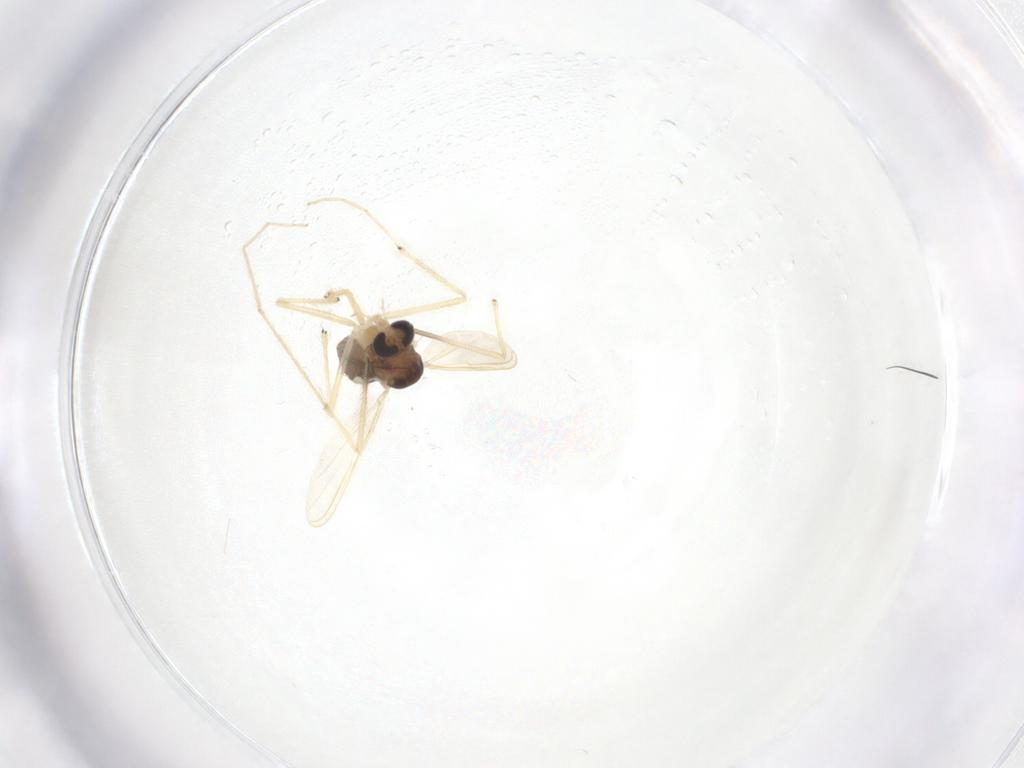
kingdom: Animalia
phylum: Arthropoda
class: Insecta
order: Diptera
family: Chironomidae
